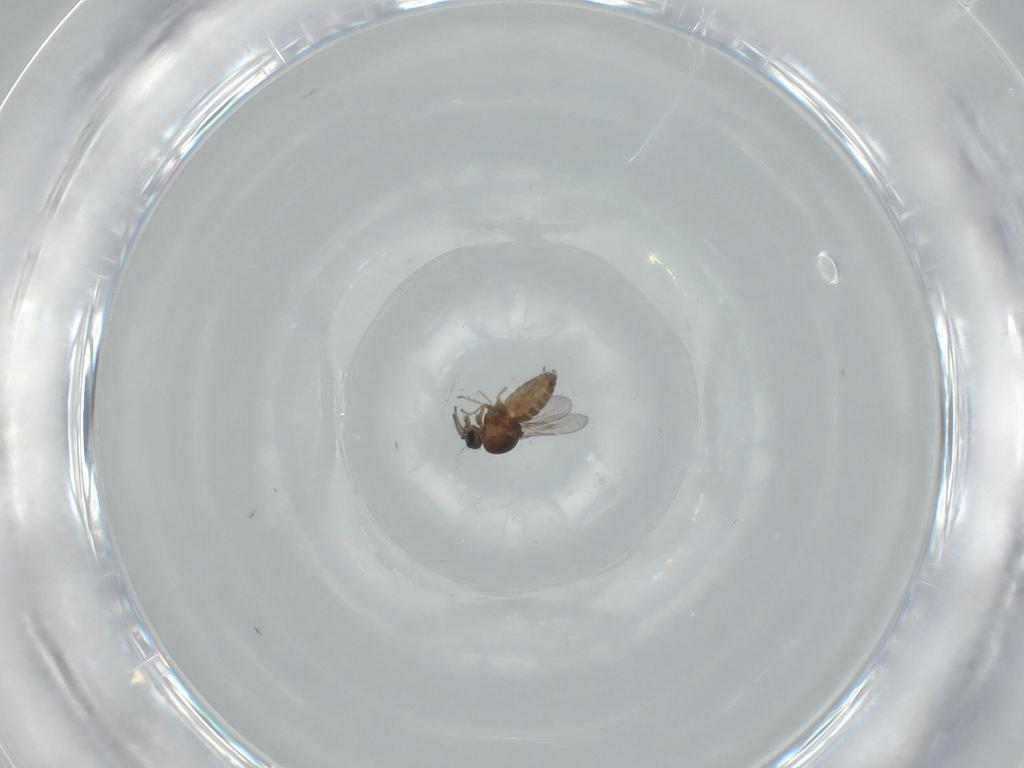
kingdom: Animalia
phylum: Arthropoda
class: Insecta
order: Diptera
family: Ceratopogonidae
